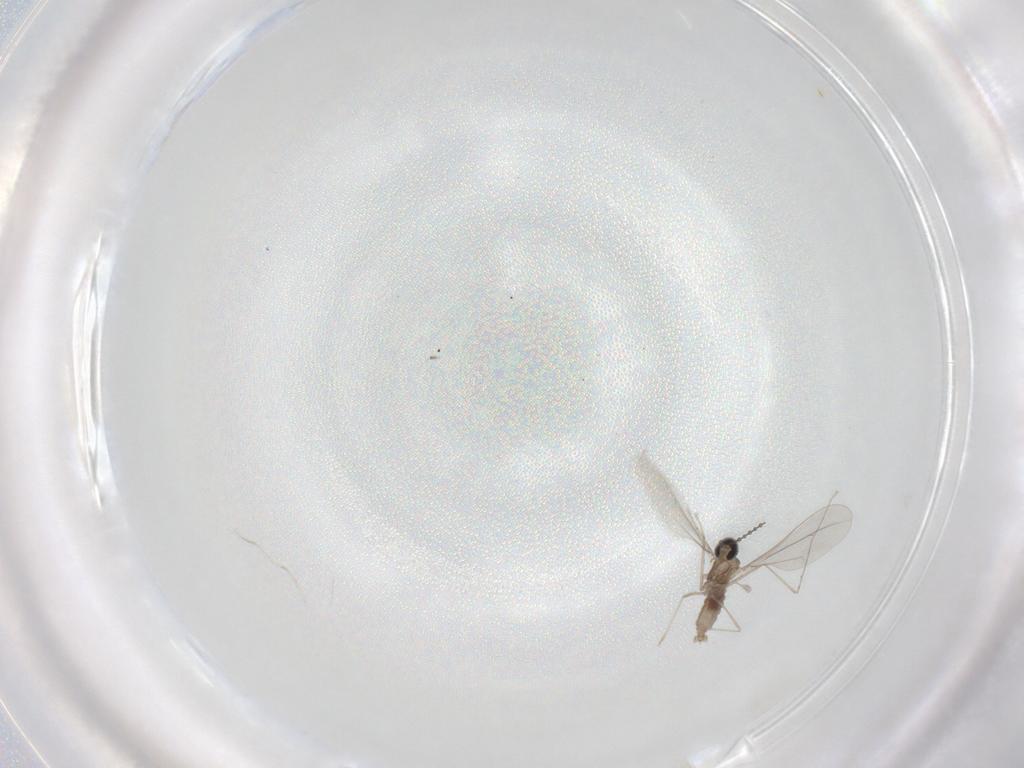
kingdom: Animalia
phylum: Arthropoda
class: Insecta
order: Diptera
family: Cecidomyiidae
